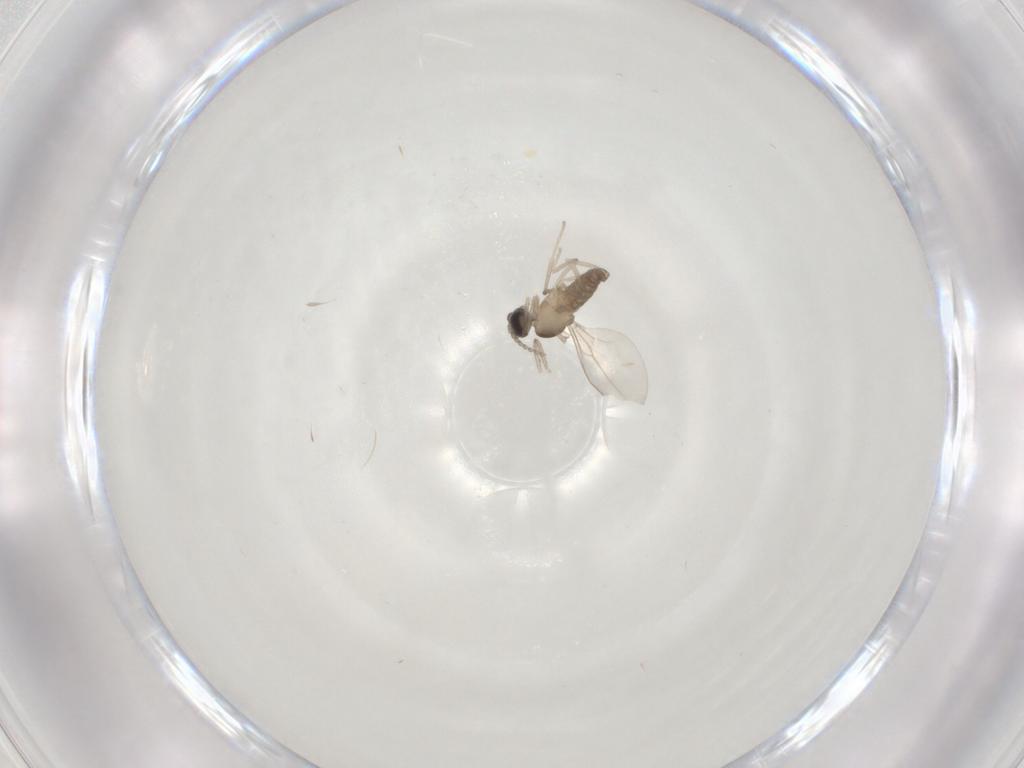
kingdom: Animalia
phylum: Arthropoda
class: Insecta
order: Diptera
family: Cecidomyiidae
